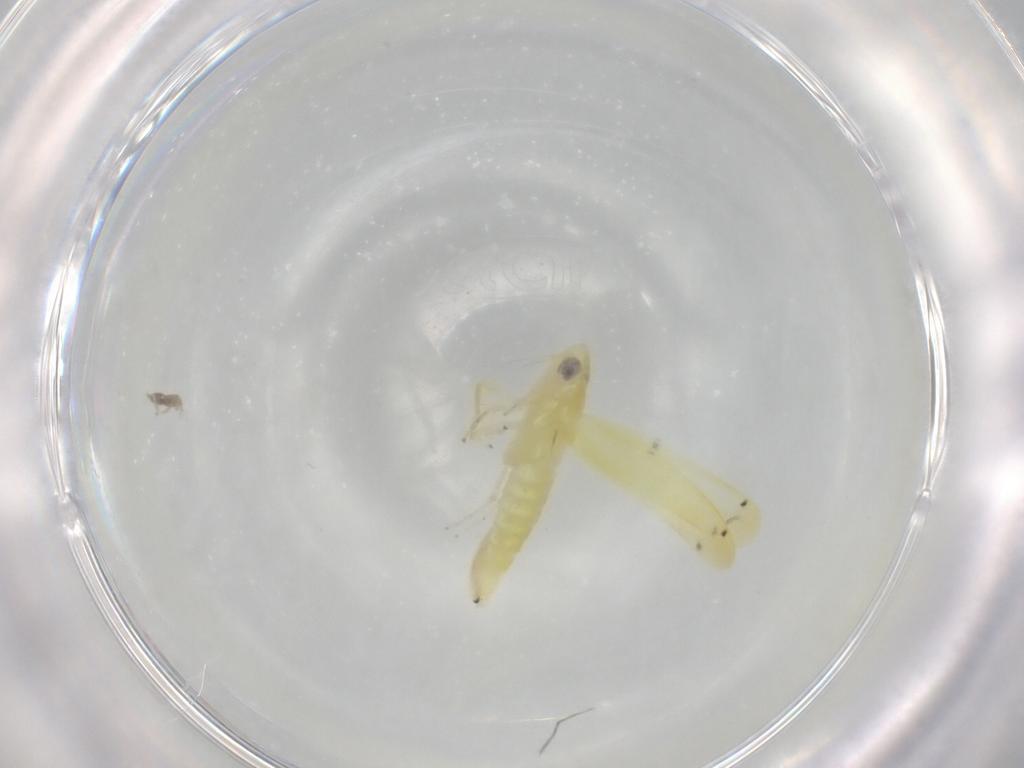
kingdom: Animalia
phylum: Arthropoda
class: Insecta
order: Hemiptera
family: Cicadellidae
